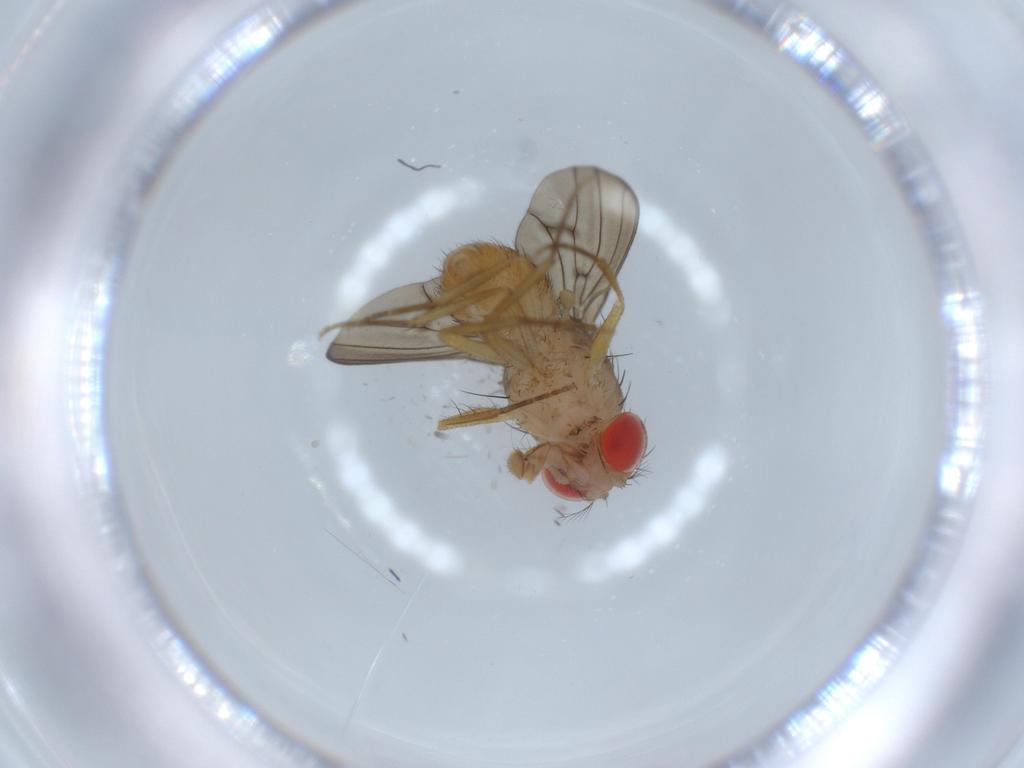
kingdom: Animalia
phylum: Arthropoda
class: Insecta
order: Diptera
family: Drosophilidae
